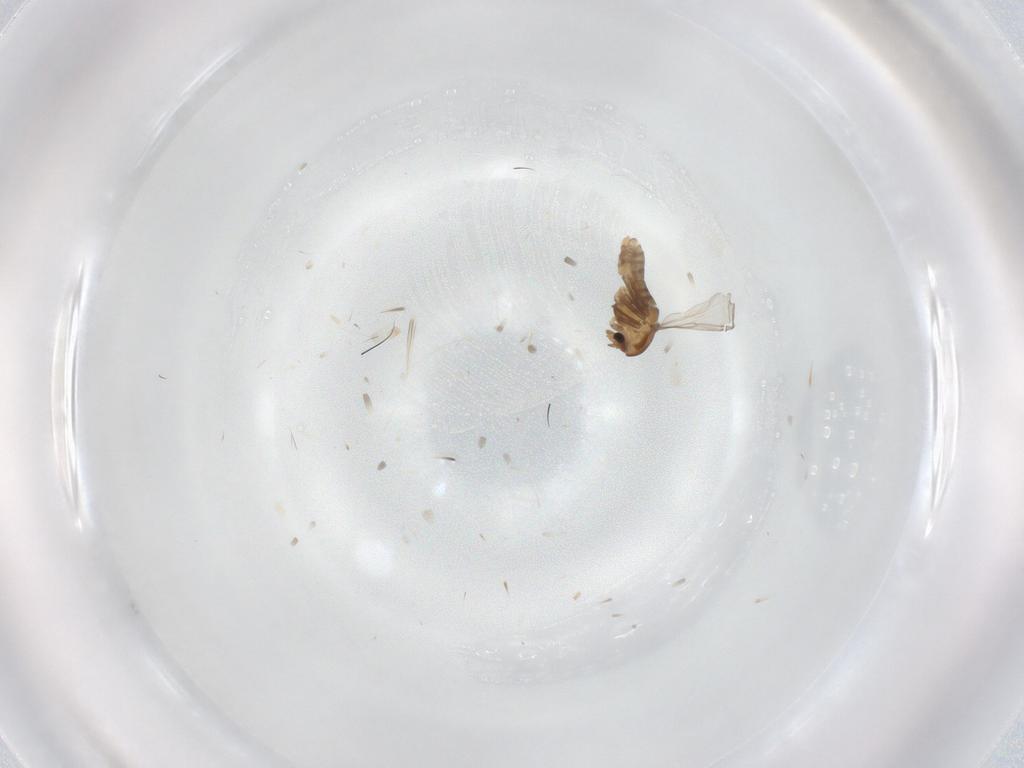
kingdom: Animalia
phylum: Arthropoda
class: Insecta
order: Diptera
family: Chironomidae
